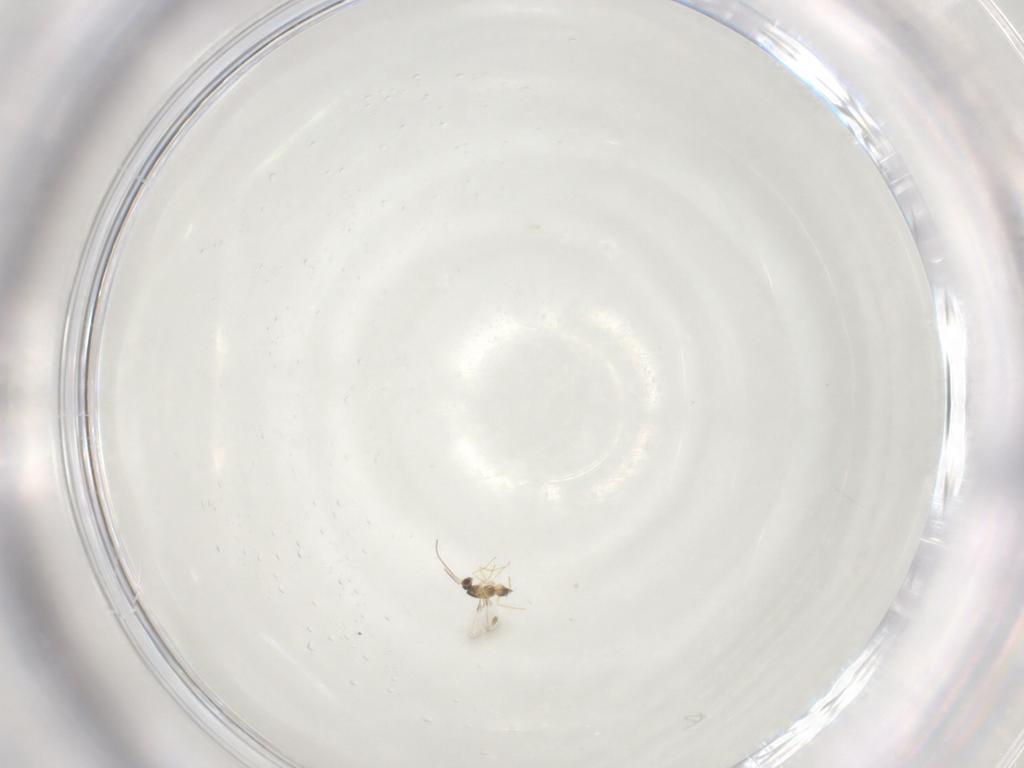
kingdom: Animalia
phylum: Arthropoda
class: Insecta
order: Hymenoptera
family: Mymaridae
